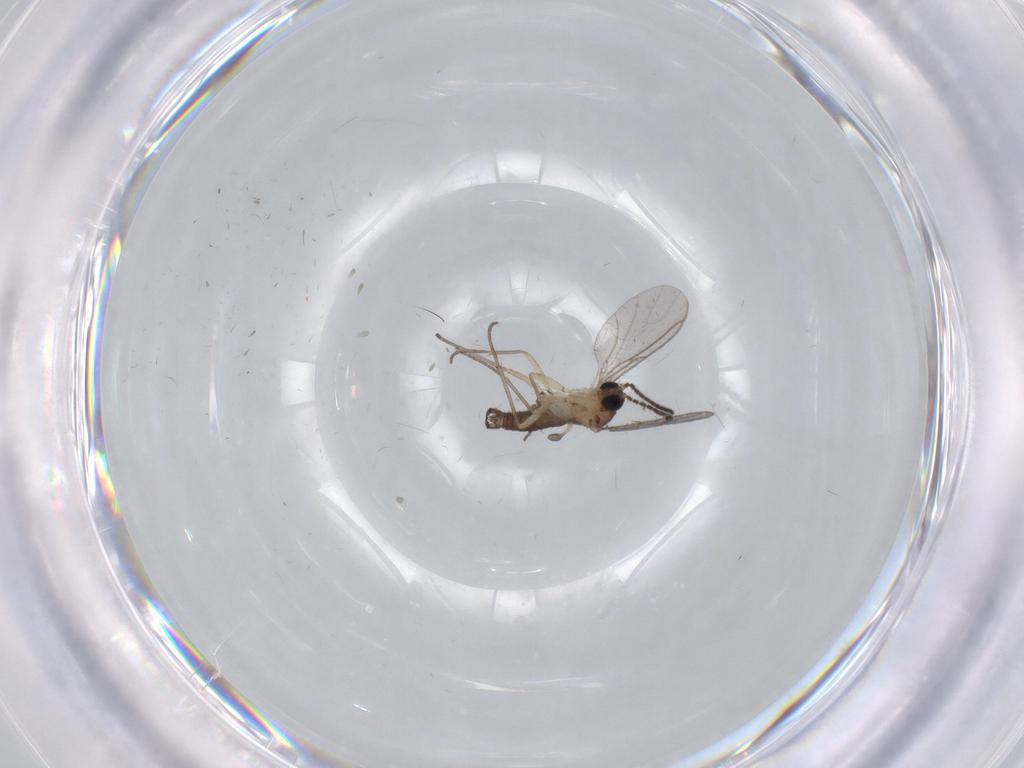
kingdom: Animalia
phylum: Arthropoda
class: Insecta
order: Diptera
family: Sciaridae
